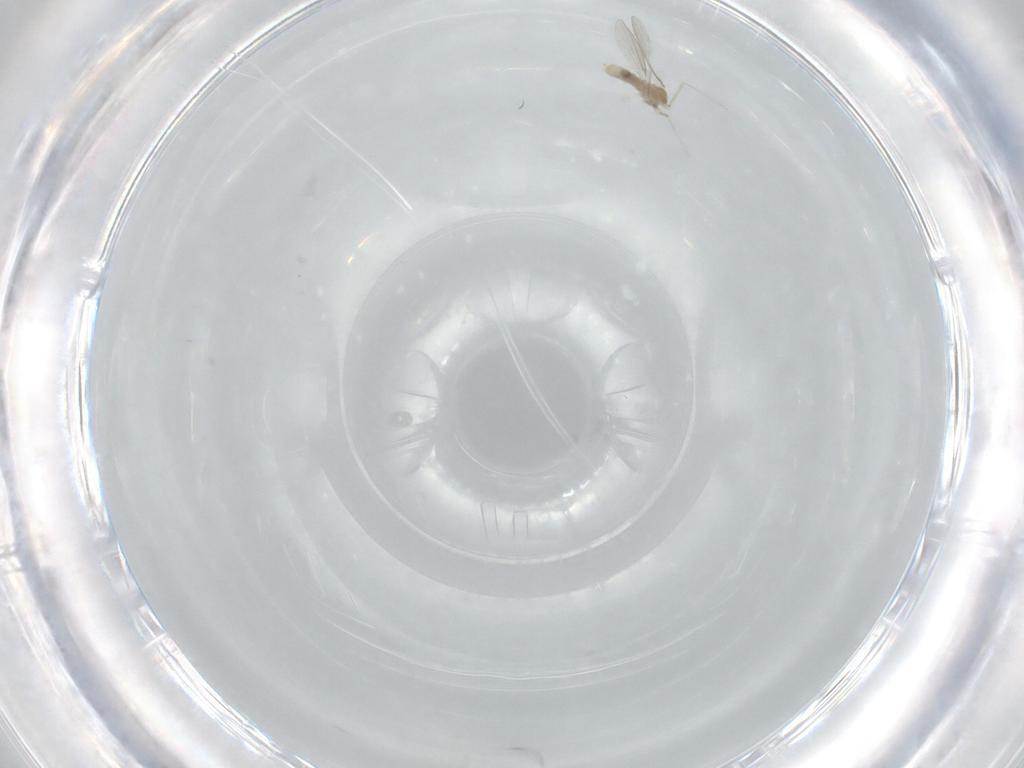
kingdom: Animalia
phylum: Arthropoda
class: Insecta
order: Diptera
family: Cecidomyiidae
